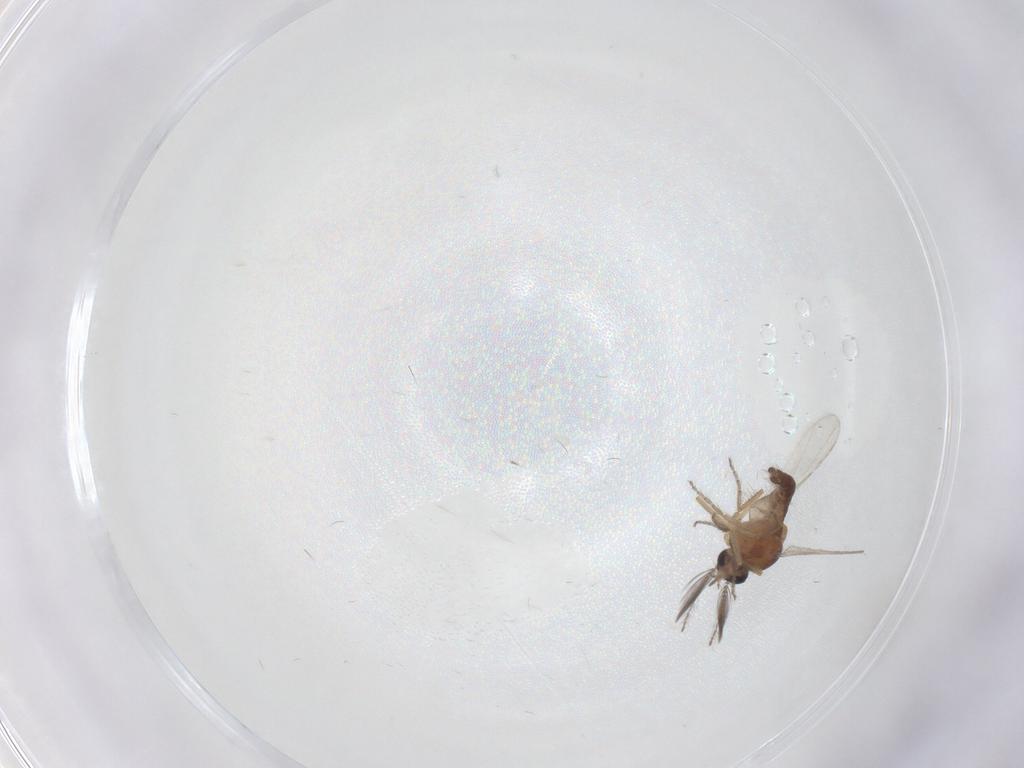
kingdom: Animalia
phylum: Arthropoda
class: Insecta
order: Diptera
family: Ceratopogonidae
